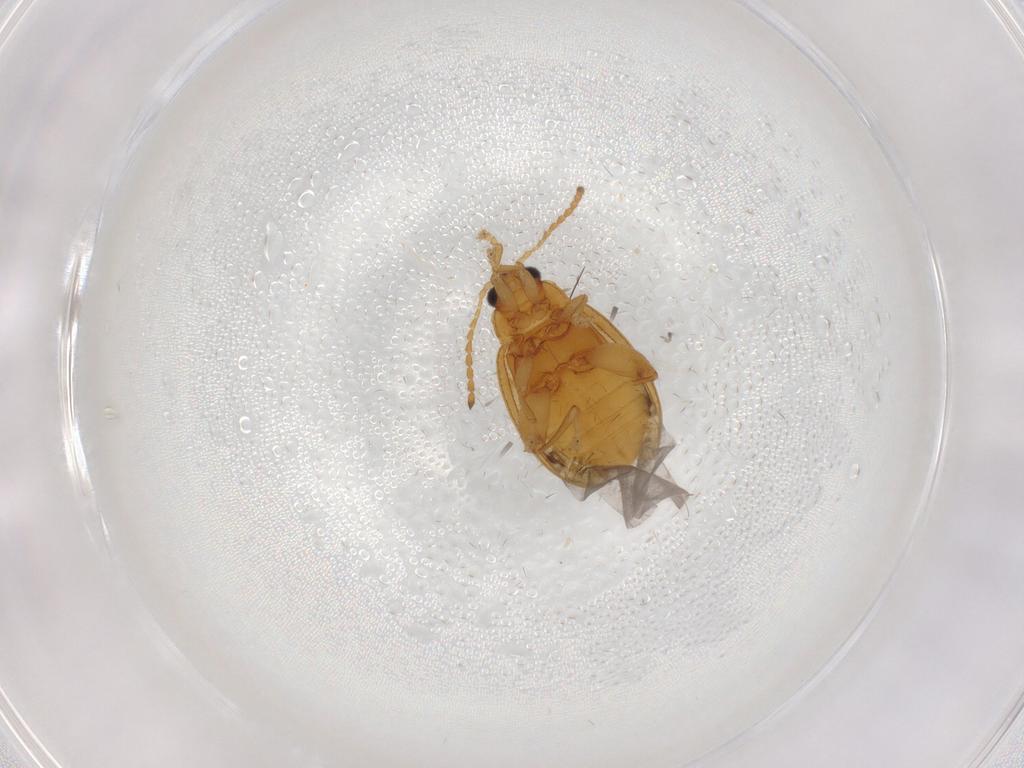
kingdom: Animalia
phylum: Arthropoda
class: Insecta
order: Coleoptera
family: Chrysomelidae
